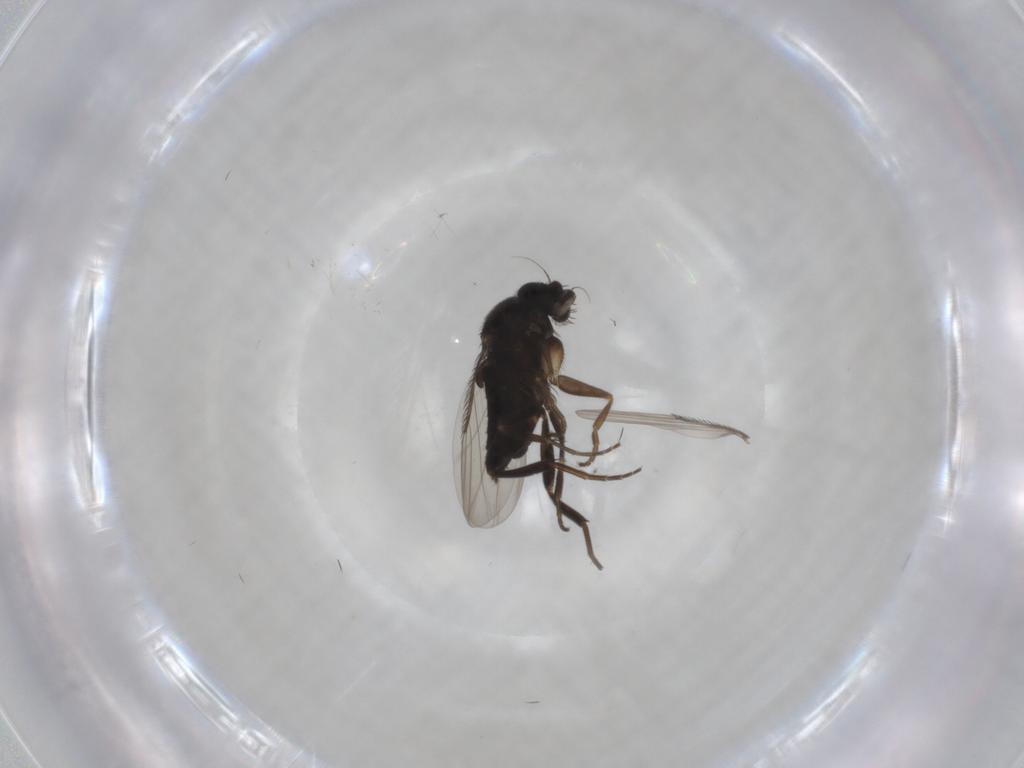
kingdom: Animalia
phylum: Arthropoda
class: Insecta
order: Diptera
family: Phoridae
